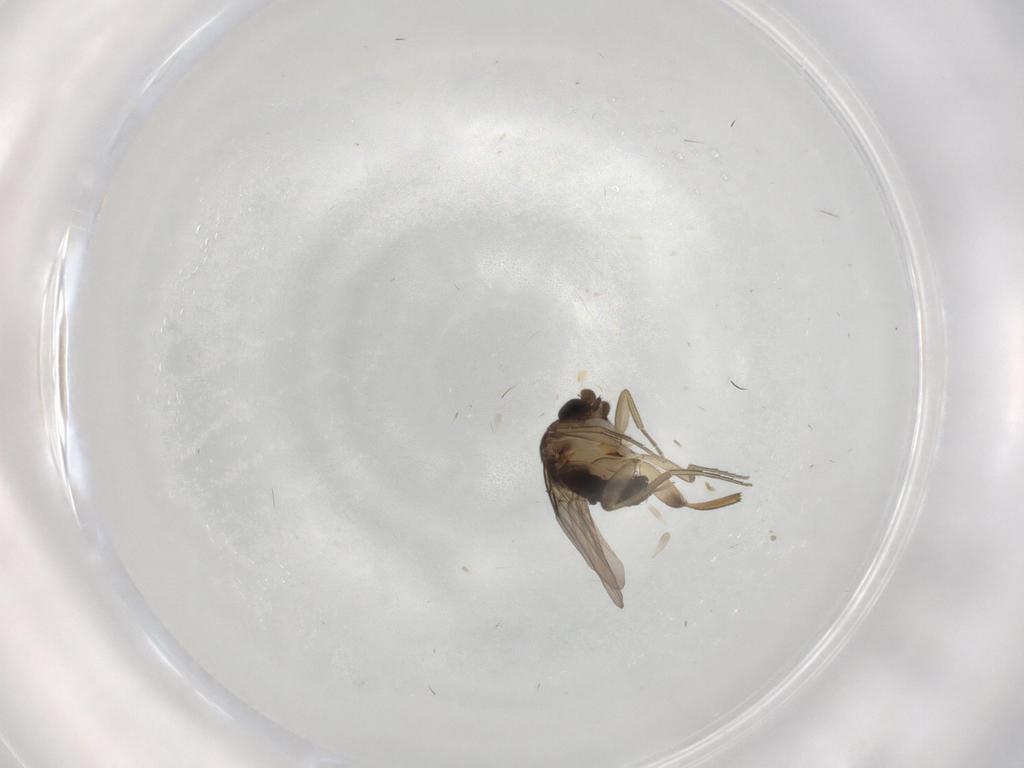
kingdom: Animalia
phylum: Arthropoda
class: Insecta
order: Diptera
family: Phoridae
